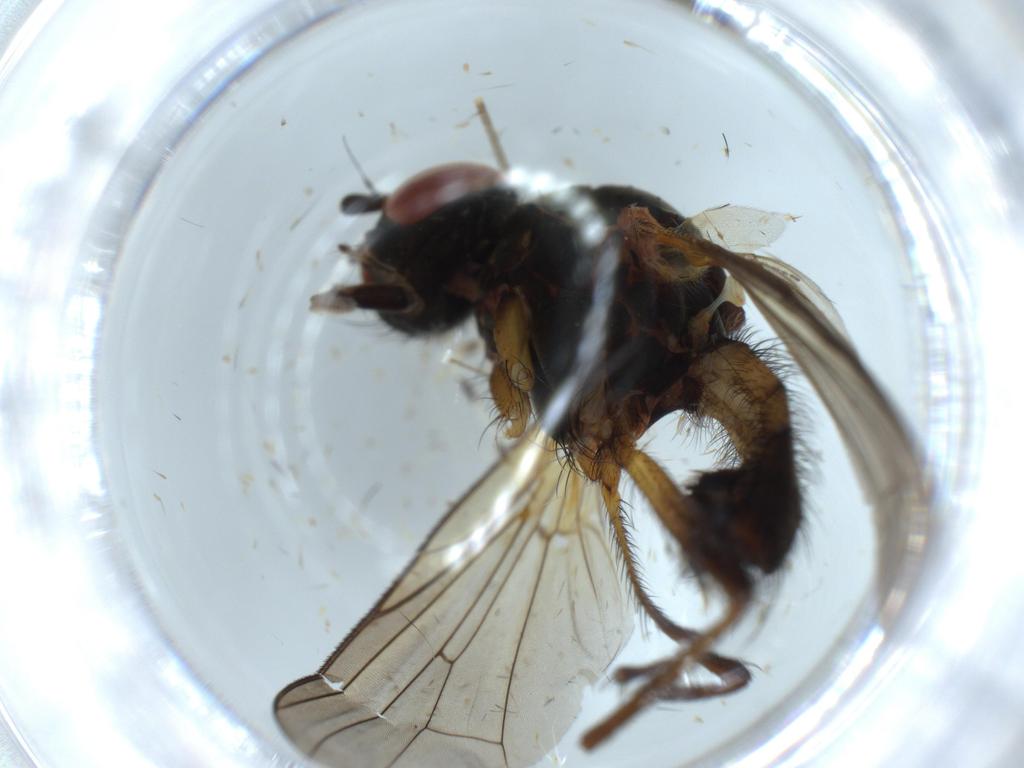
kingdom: Animalia
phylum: Arthropoda
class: Insecta
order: Diptera
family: Anthomyiidae
